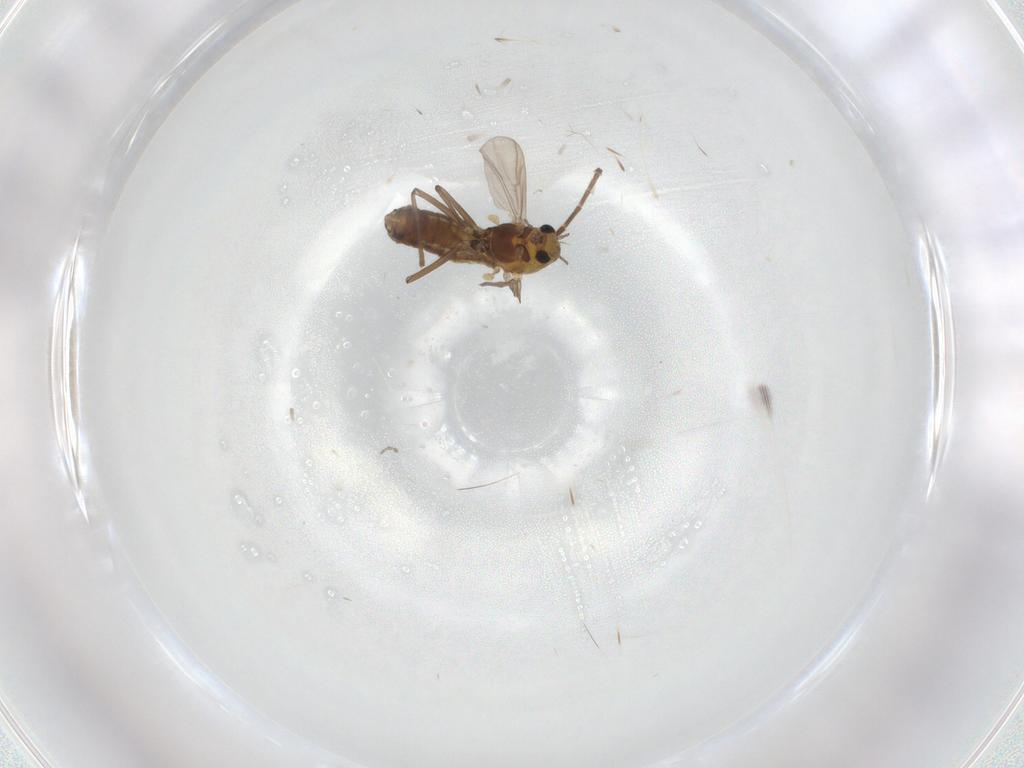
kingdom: Animalia
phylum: Arthropoda
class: Insecta
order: Diptera
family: Chironomidae
